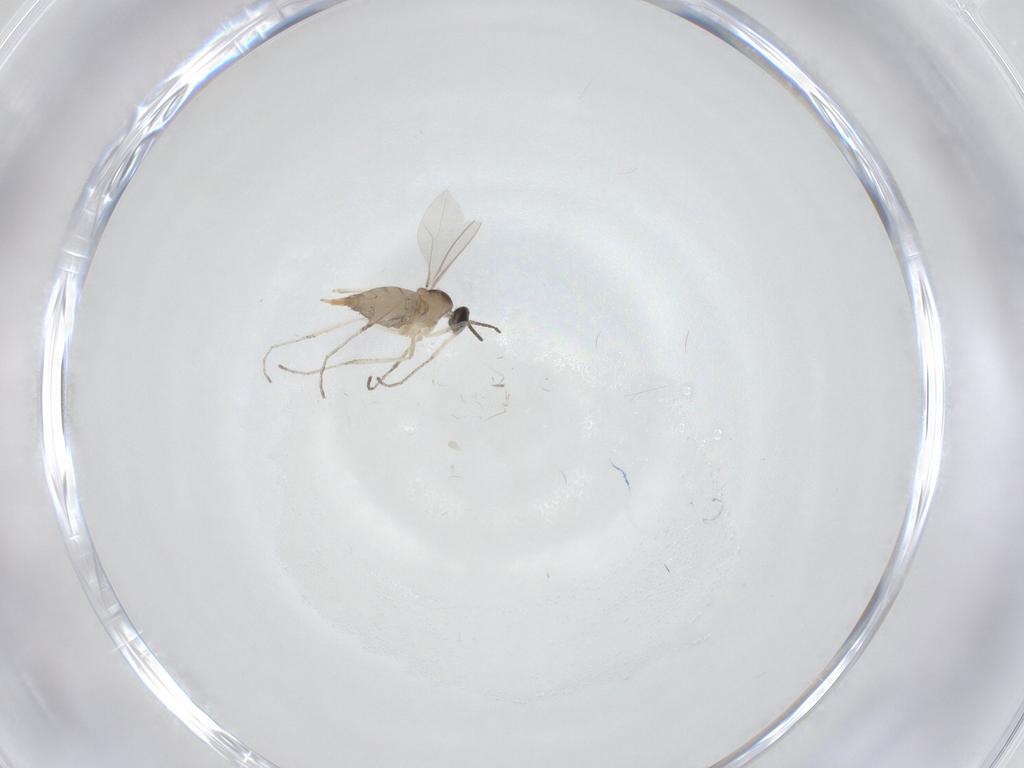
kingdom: Animalia
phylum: Arthropoda
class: Insecta
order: Diptera
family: Cecidomyiidae
